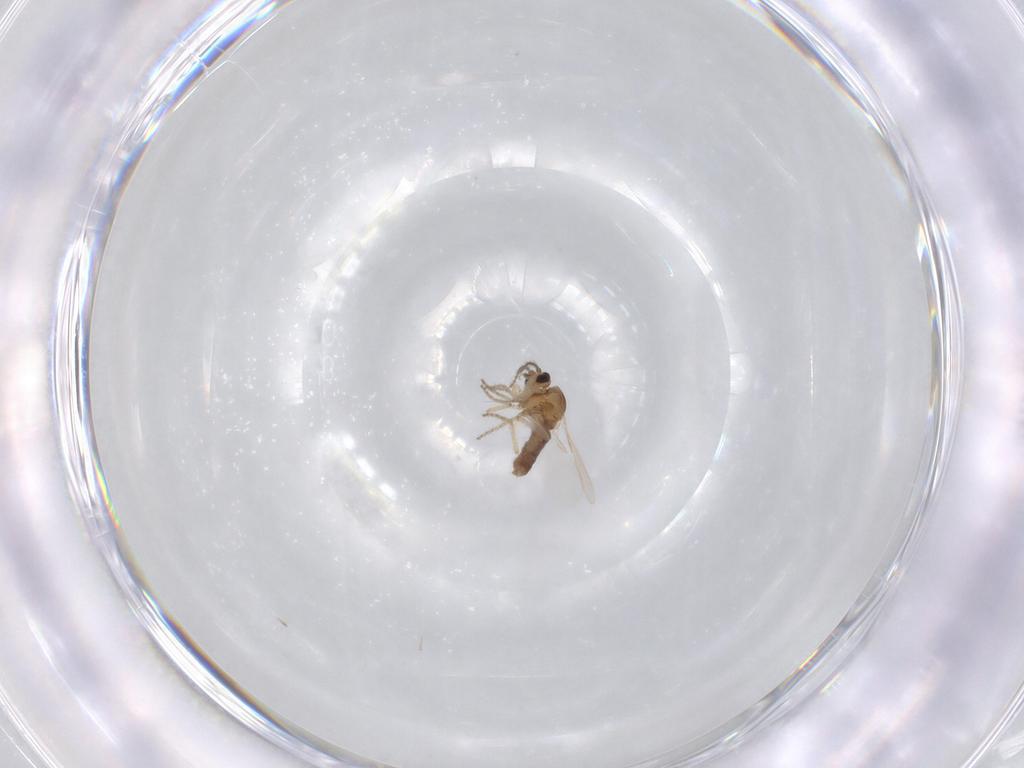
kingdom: Animalia
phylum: Arthropoda
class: Insecta
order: Diptera
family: Ceratopogonidae
